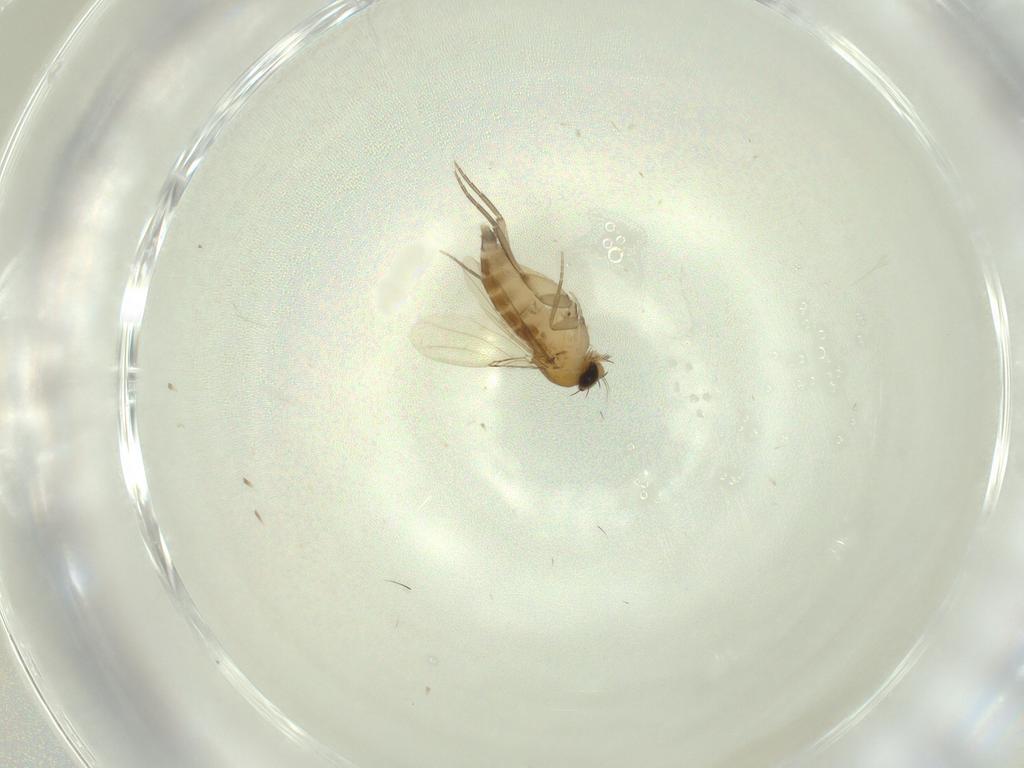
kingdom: Animalia
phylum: Arthropoda
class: Insecta
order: Diptera
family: Phoridae
